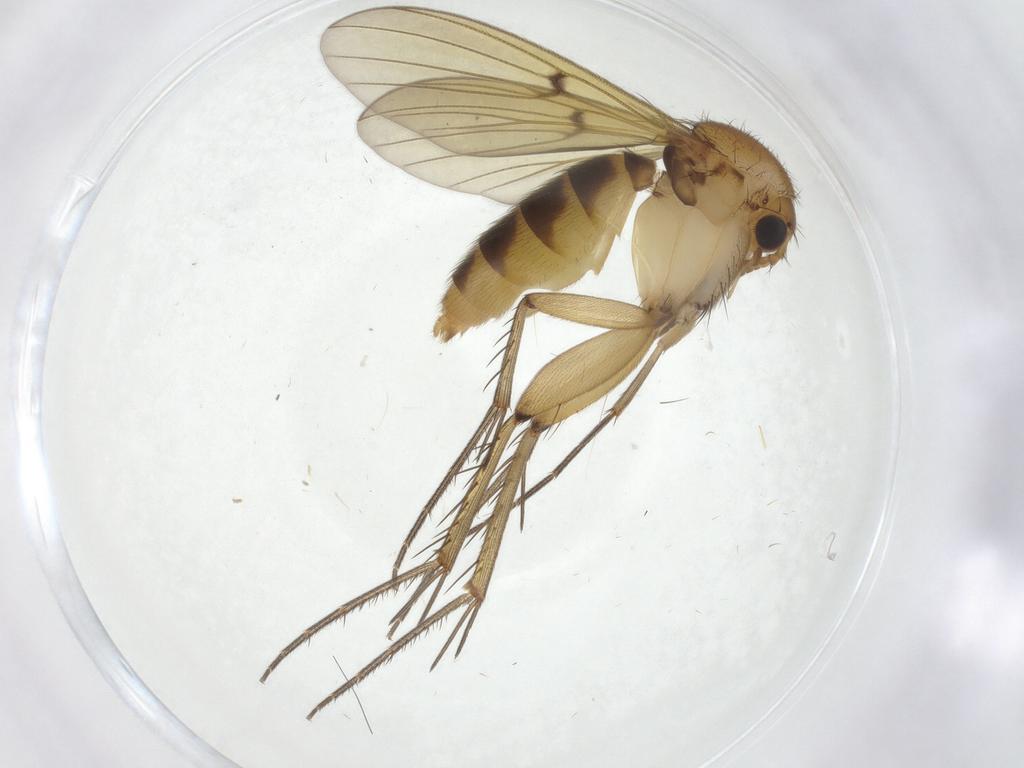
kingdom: Animalia
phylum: Arthropoda
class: Insecta
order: Diptera
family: Mycetophilidae
